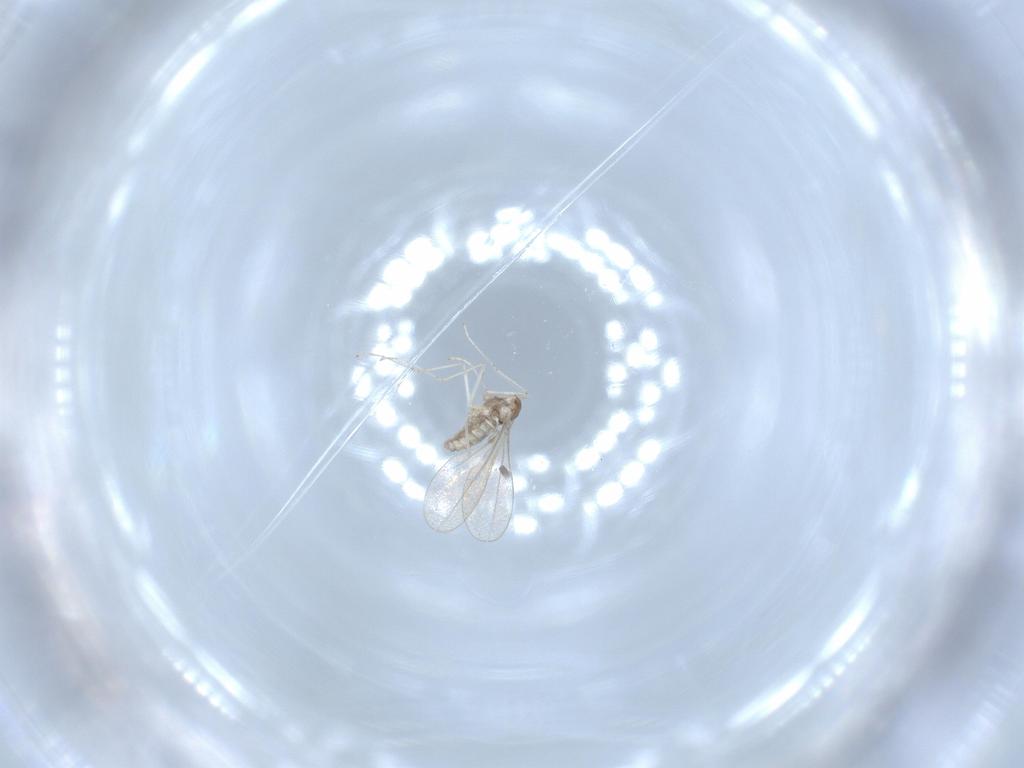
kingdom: Animalia
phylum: Arthropoda
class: Insecta
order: Diptera
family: Cecidomyiidae
